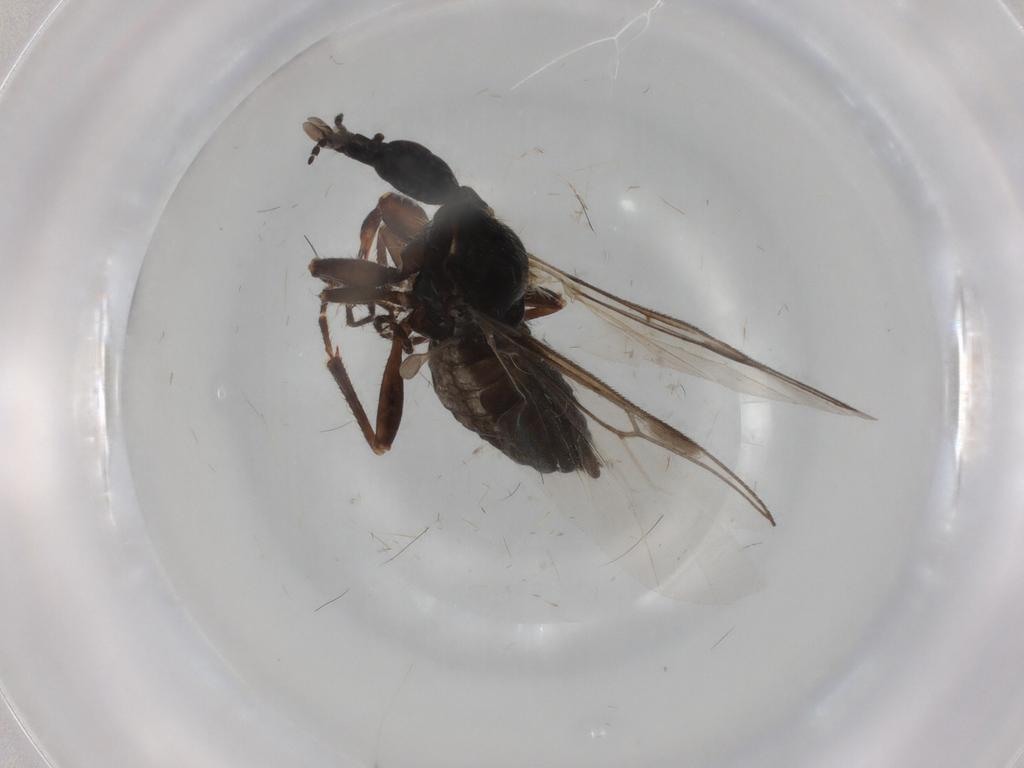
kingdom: Animalia
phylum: Arthropoda
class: Insecta
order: Diptera
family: Bibionidae
